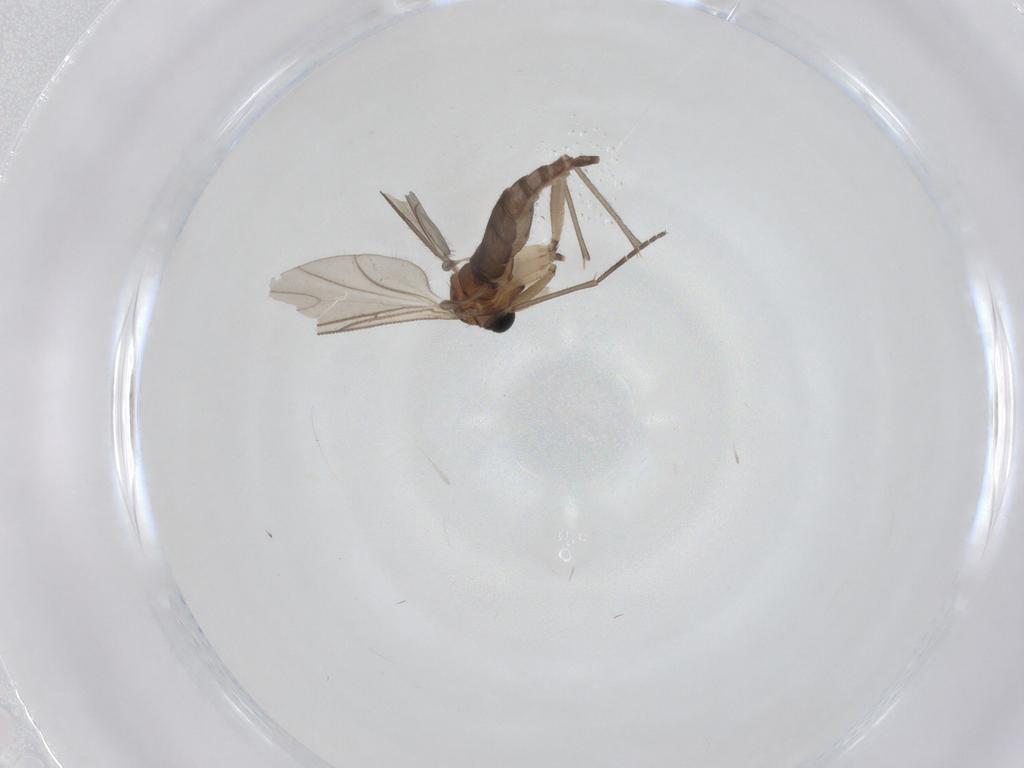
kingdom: Animalia
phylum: Arthropoda
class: Insecta
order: Diptera
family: Sciaridae
